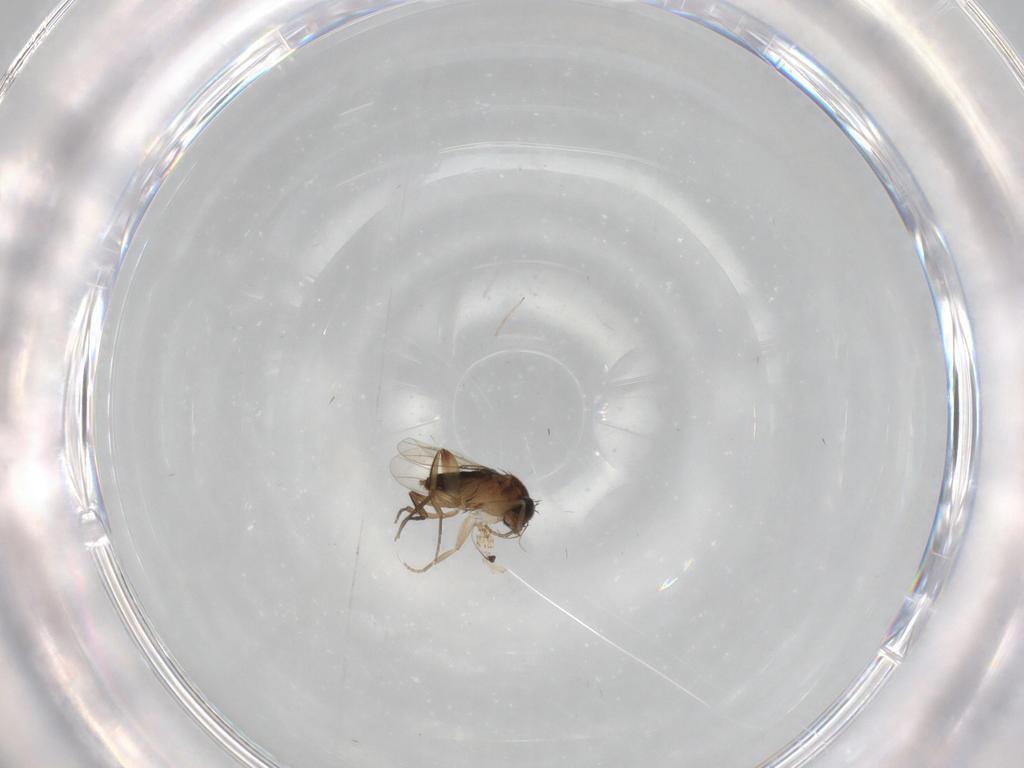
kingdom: Animalia
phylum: Arthropoda
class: Insecta
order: Diptera
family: Dolichopodidae
